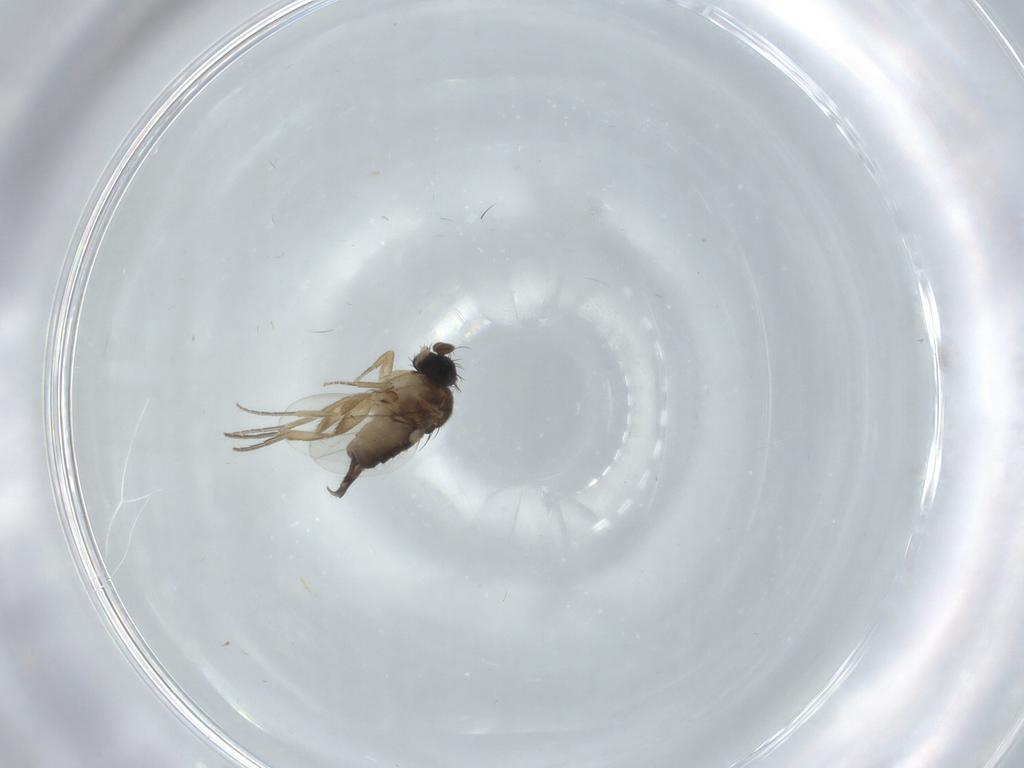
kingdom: Animalia
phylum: Arthropoda
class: Insecta
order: Diptera
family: Phoridae
